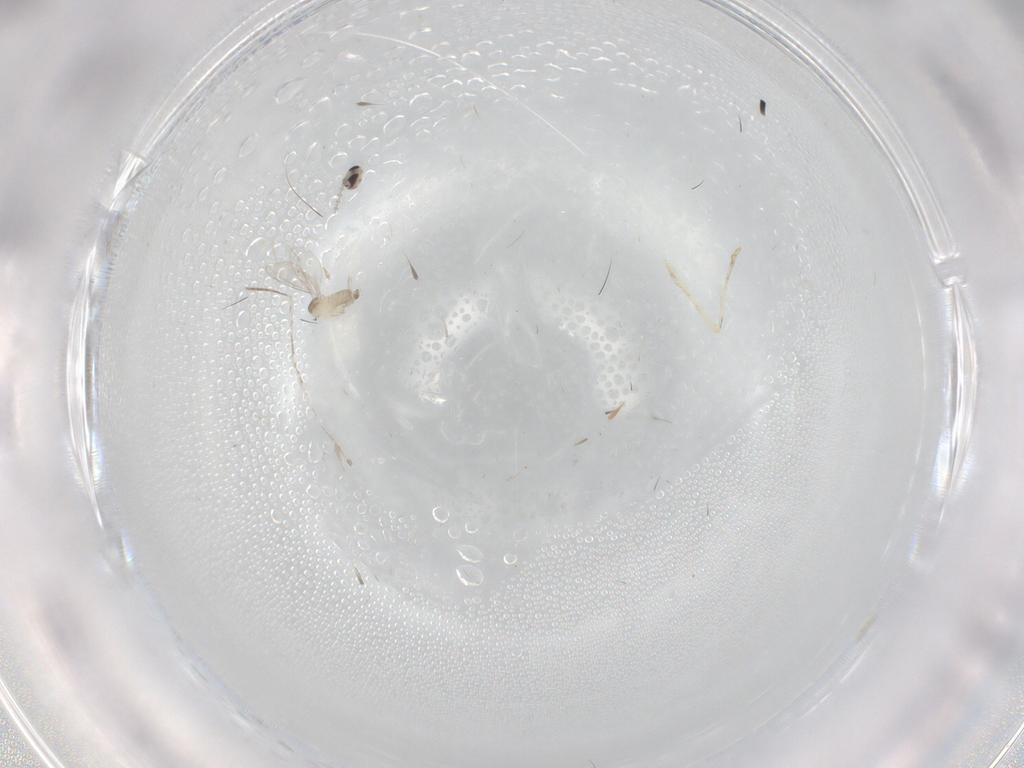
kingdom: Animalia
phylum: Arthropoda
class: Insecta
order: Diptera
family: Cecidomyiidae
